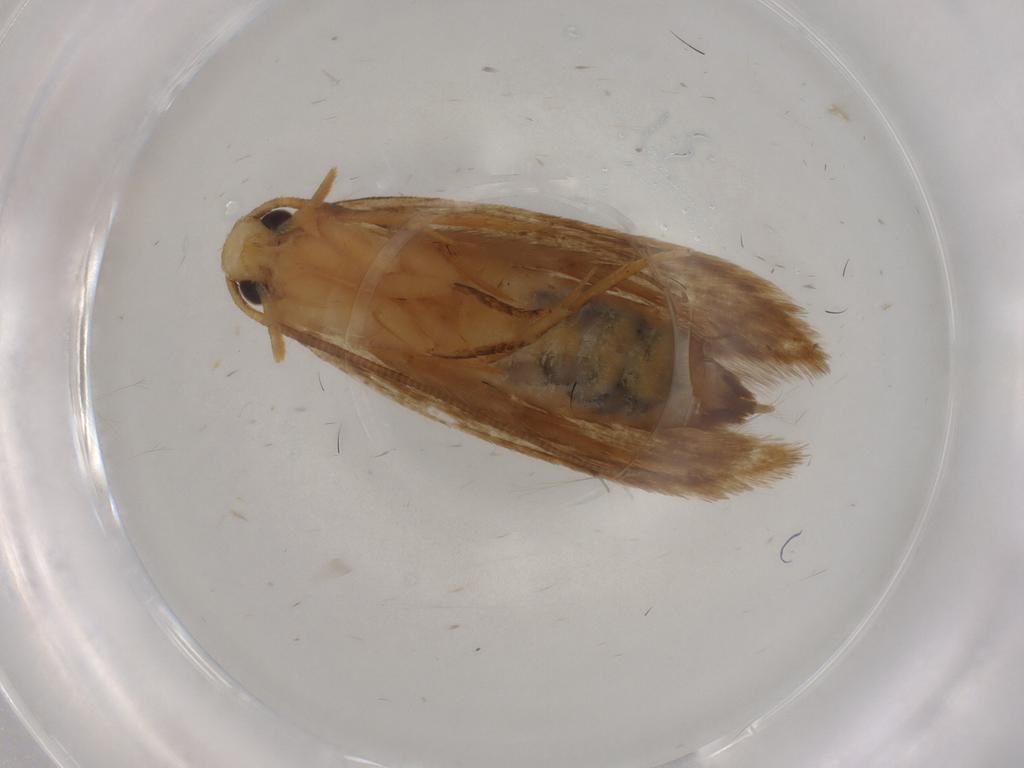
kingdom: Animalia
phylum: Arthropoda
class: Insecta
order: Lepidoptera
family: Tineidae
